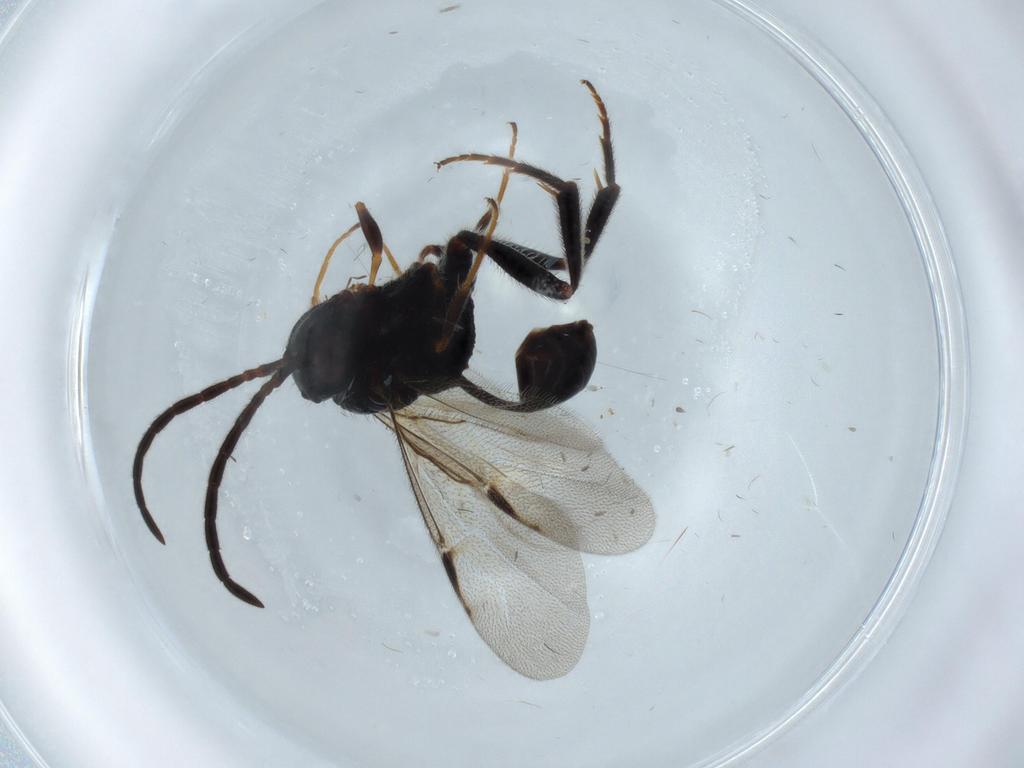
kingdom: Animalia
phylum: Arthropoda
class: Insecta
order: Hymenoptera
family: Evaniidae
